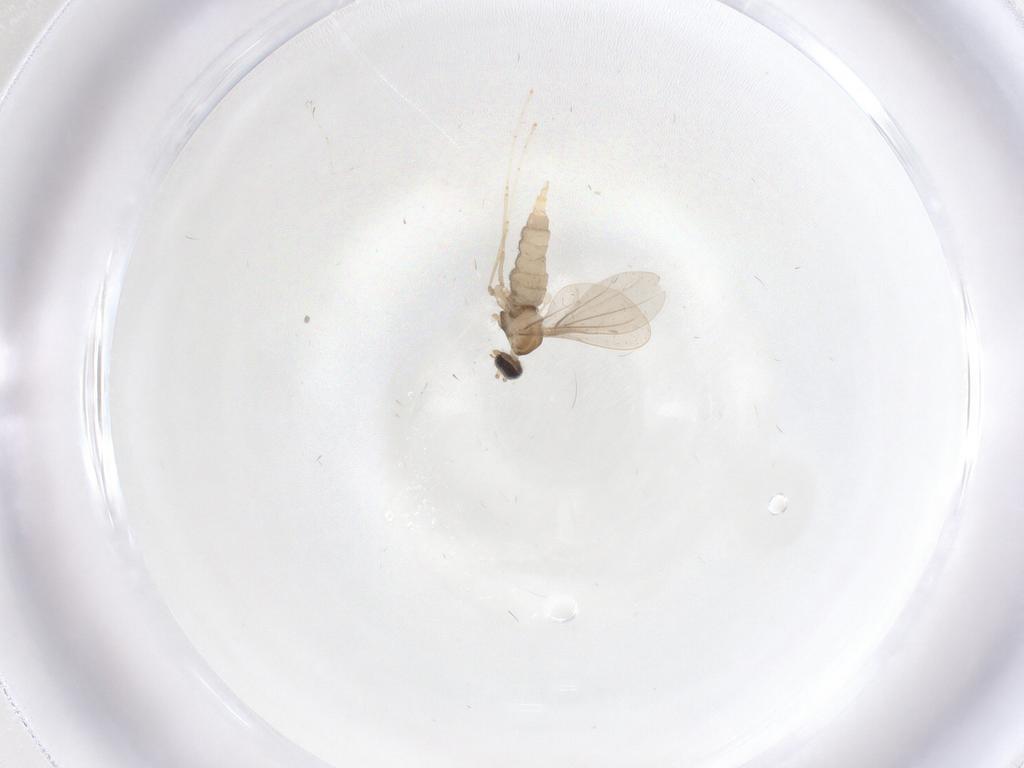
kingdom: Animalia
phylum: Arthropoda
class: Insecta
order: Diptera
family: Cecidomyiidae
